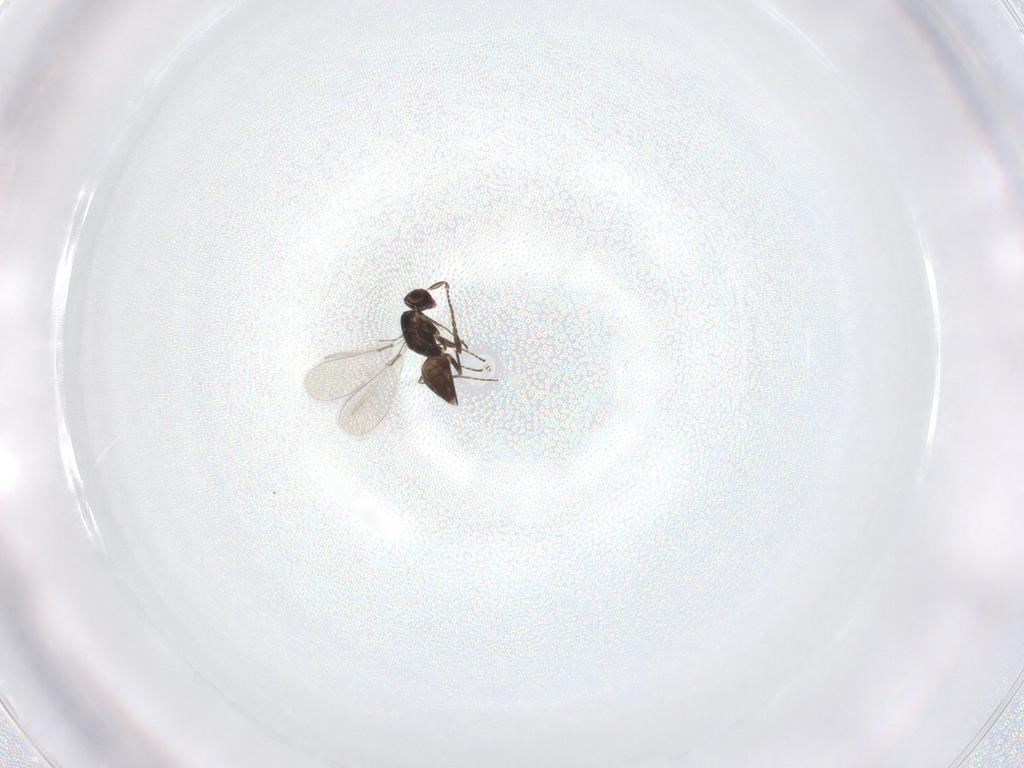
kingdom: Animalia
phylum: Arthropoda
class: Insecta
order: Hymenoptera
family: Mymaridae
